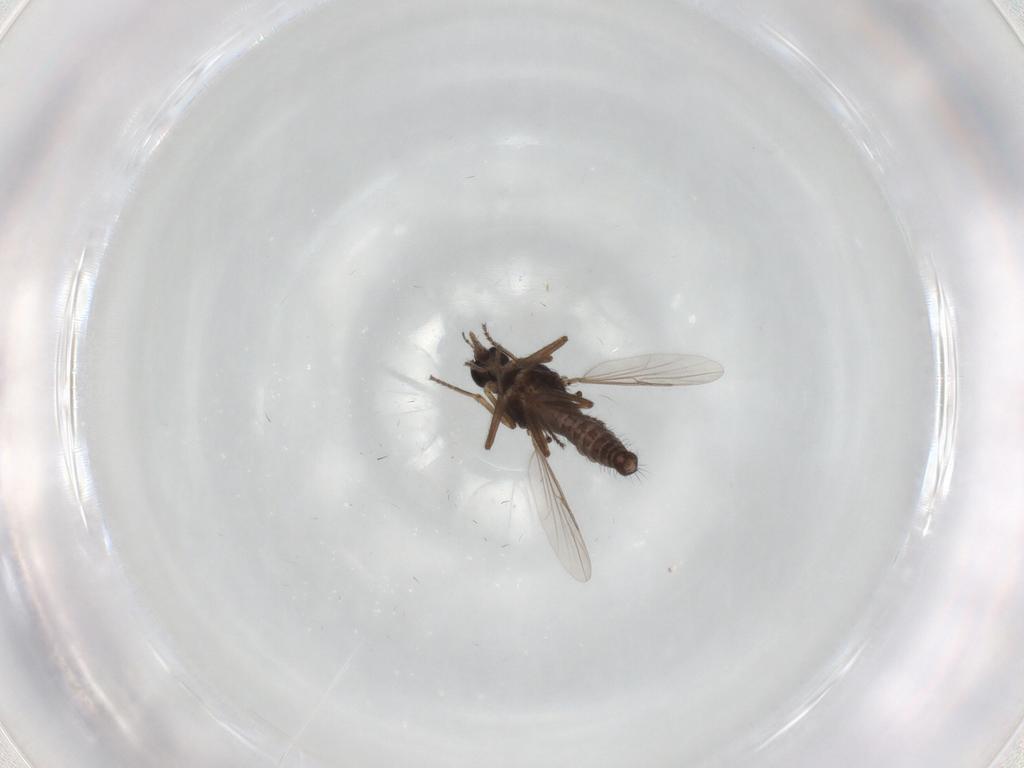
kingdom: Animalia
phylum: Arthropoda
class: Insecta
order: Diptera
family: Ceratopogonidae
